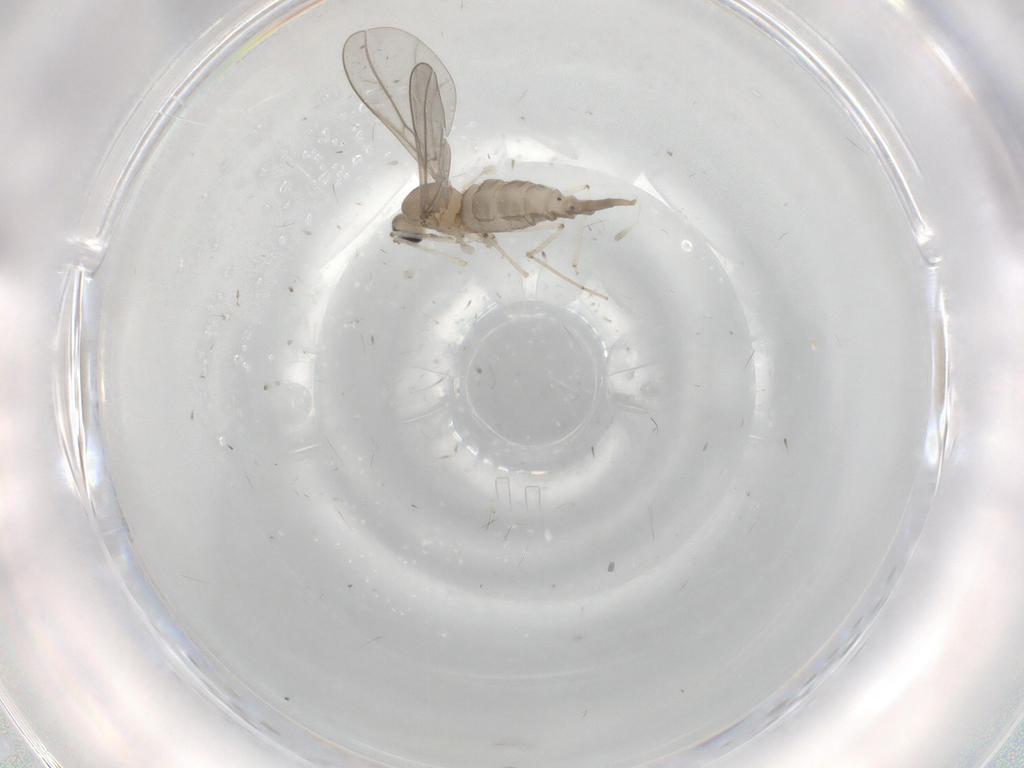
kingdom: Animalia
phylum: Arthropoda
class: Insecta
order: Diptera
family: Cecidomyiidae
